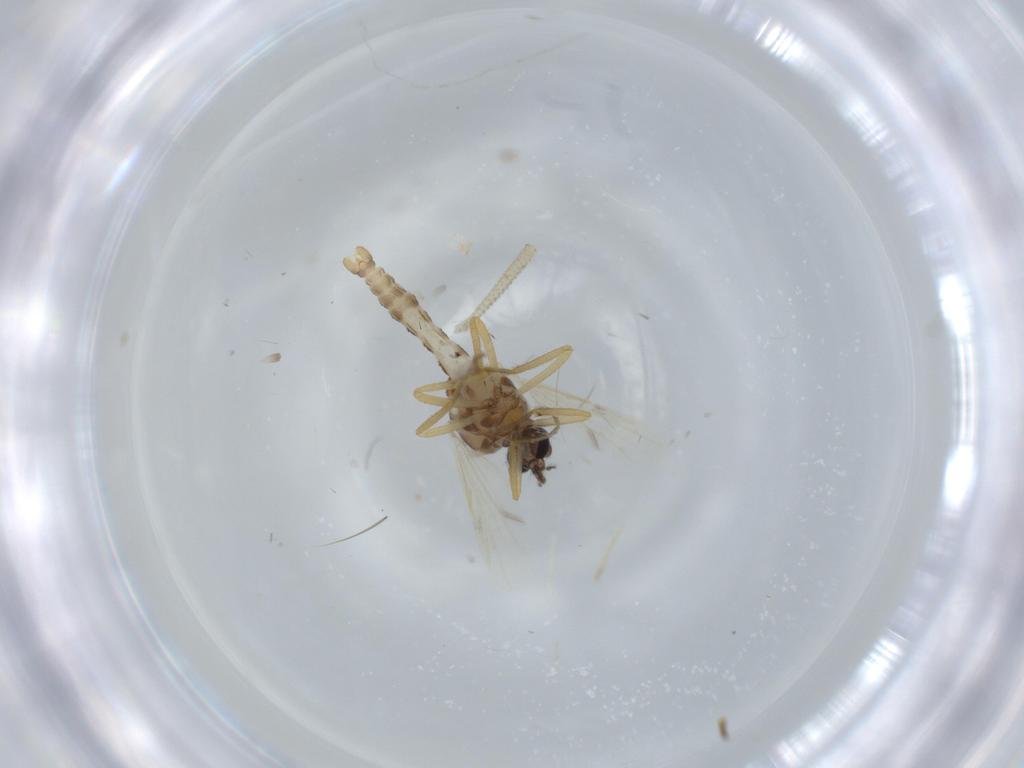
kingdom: Animalia
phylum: Arthropoda
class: Insecta
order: Diptera
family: Ceratopogonidae
